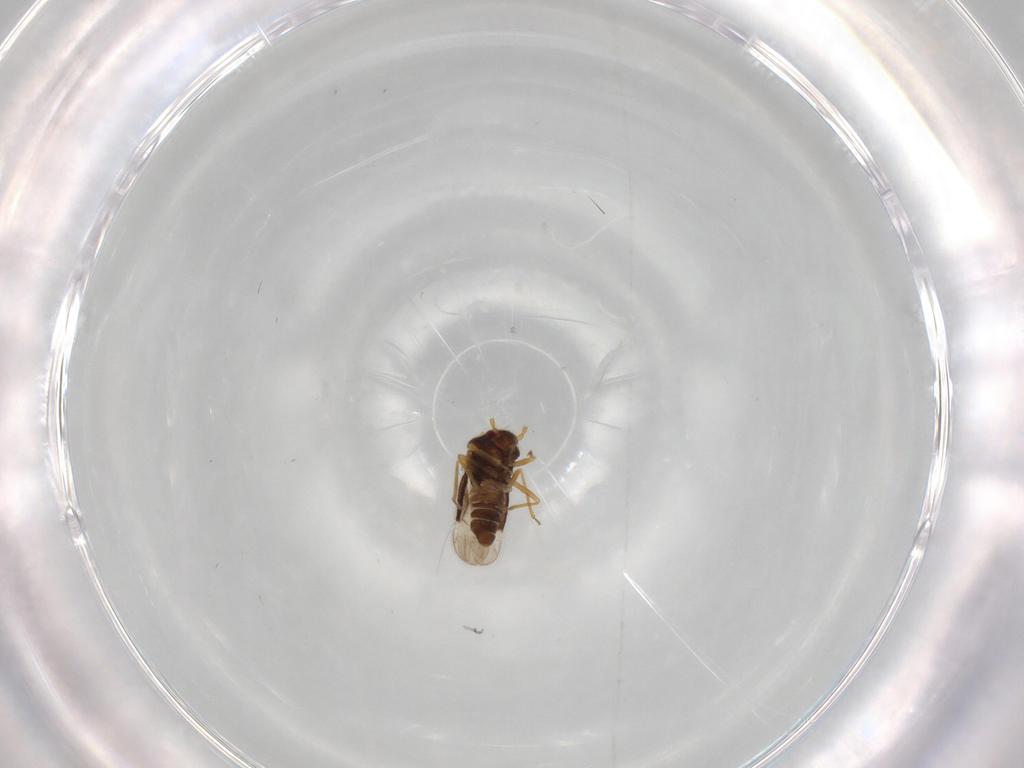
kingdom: Animalia
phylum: Arthropoda
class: Insecta
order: Hemiptera
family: Schizopteridae
